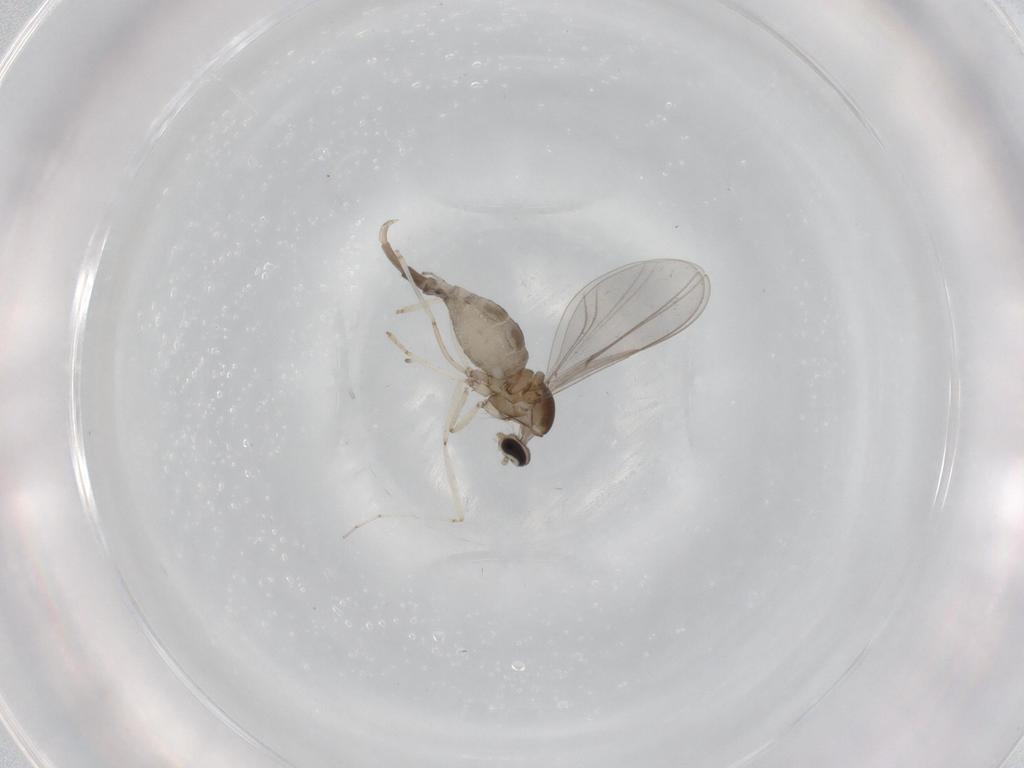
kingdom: Animalia
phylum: Arthropoda
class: Insecta
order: Diptera
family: Cecidomyiidae
